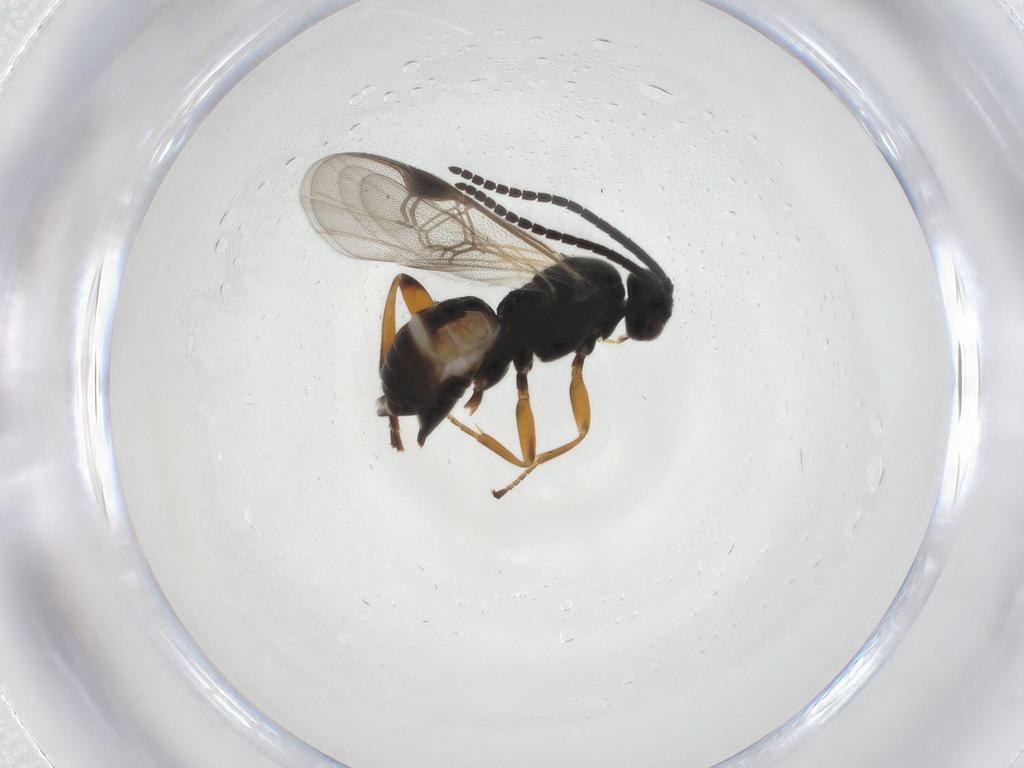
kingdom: Animalia
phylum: Arthropoda
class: Insecta
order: Hymenoptera
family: Braconidae
